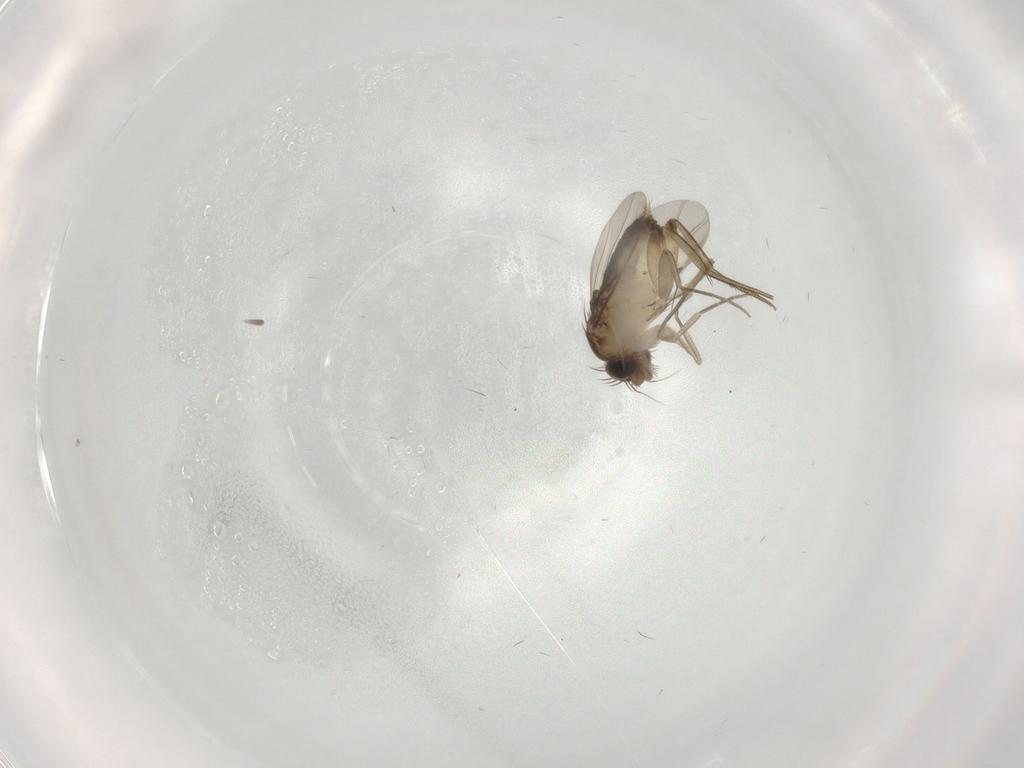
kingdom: Animalia
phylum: Arthropoda
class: Insecta
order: Diptera
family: Phoridae
